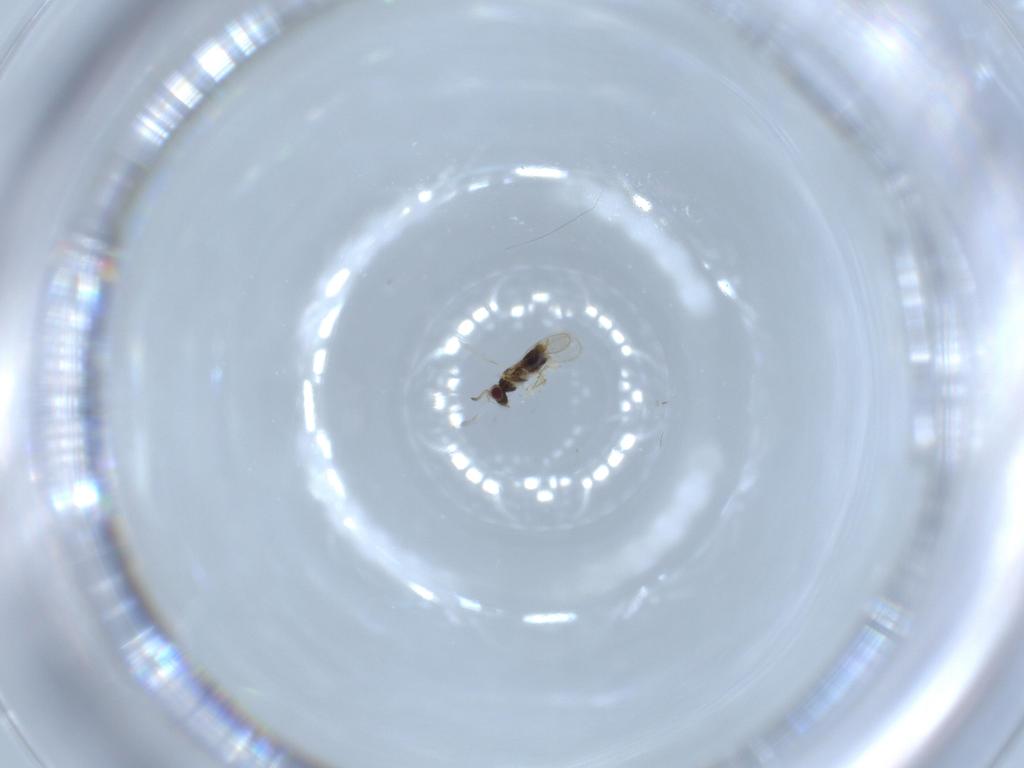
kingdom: Animalia
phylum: Arthropoda
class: Insecta
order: Hymenoptera
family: Aphelinidae
